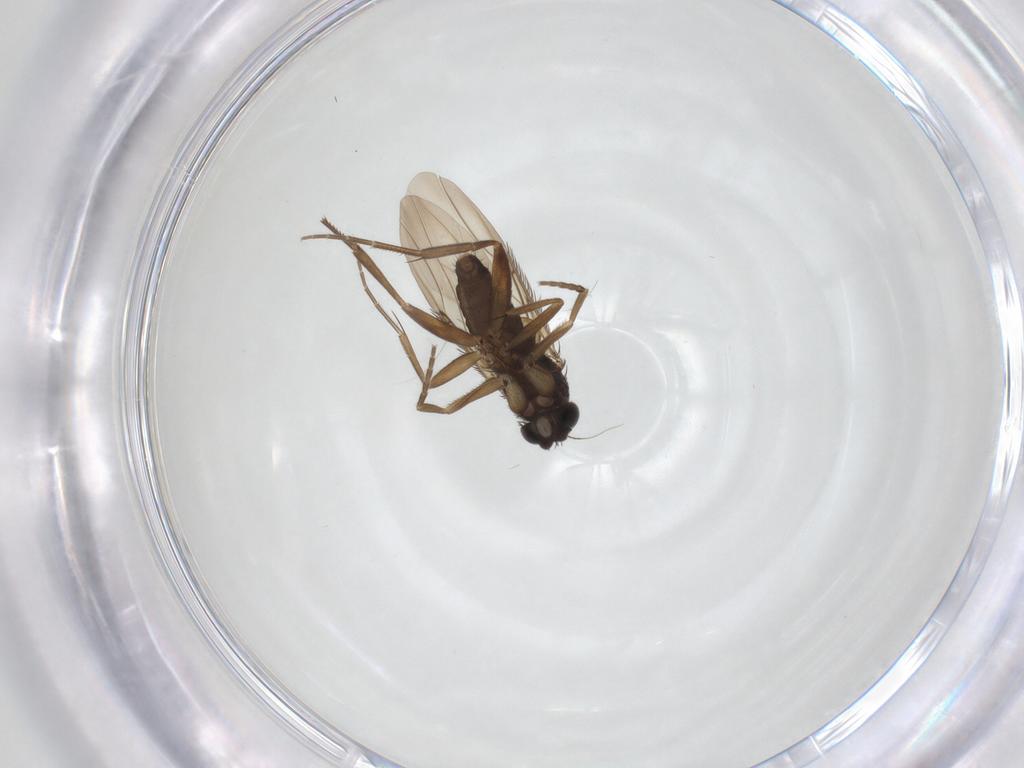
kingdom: Animalia
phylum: Arthropoda
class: Insecta
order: Diptera
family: Phoridae
